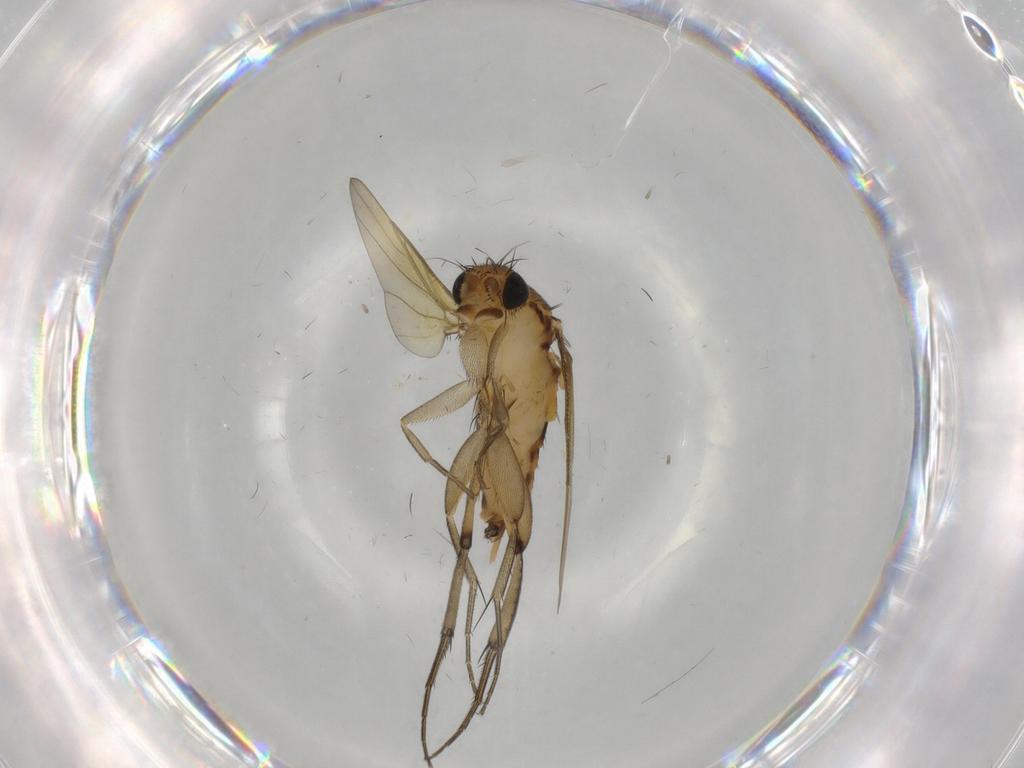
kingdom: Animalia
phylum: Arthropoda
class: Insecta
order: Diptera
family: Phoridae
